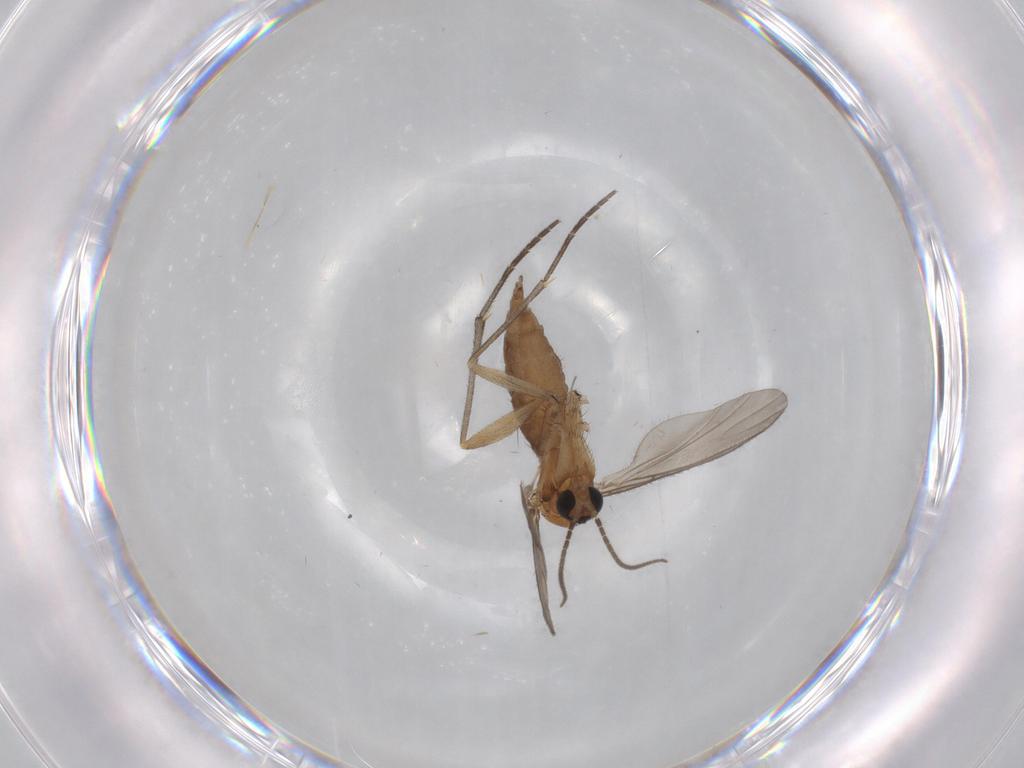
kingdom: Animalia
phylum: Arthropoda
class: Insecta
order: Diptera
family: Sciaridae
